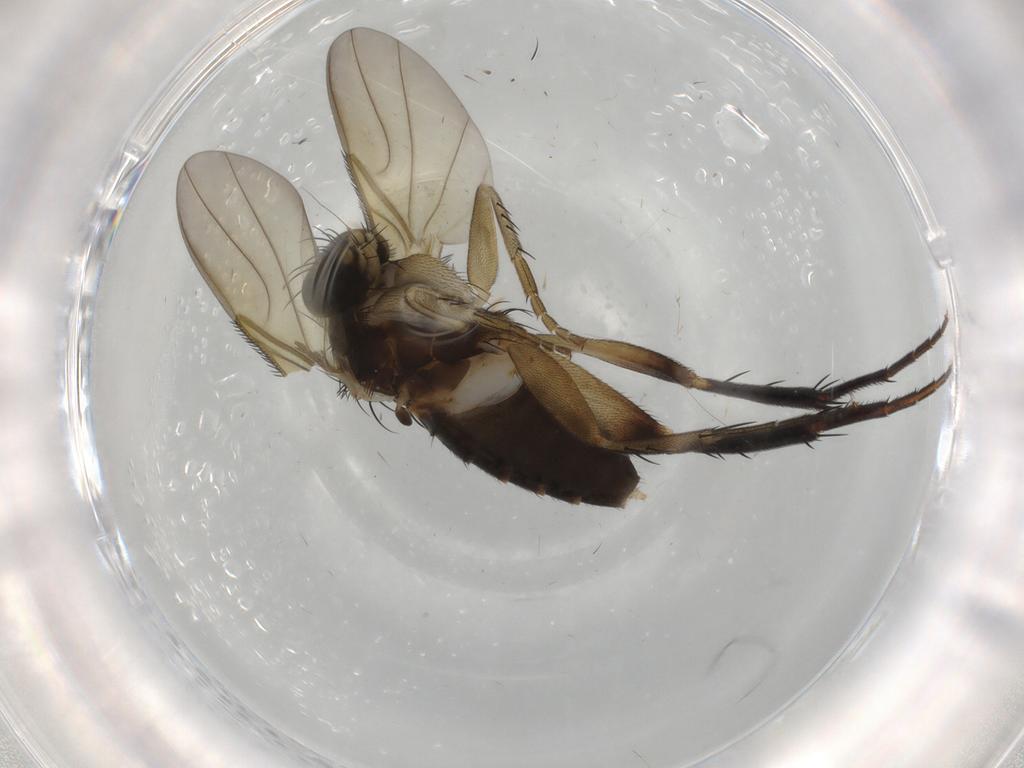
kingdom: Animalia
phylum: Arthropoda
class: Insecta
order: Diptera
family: Phoridae
